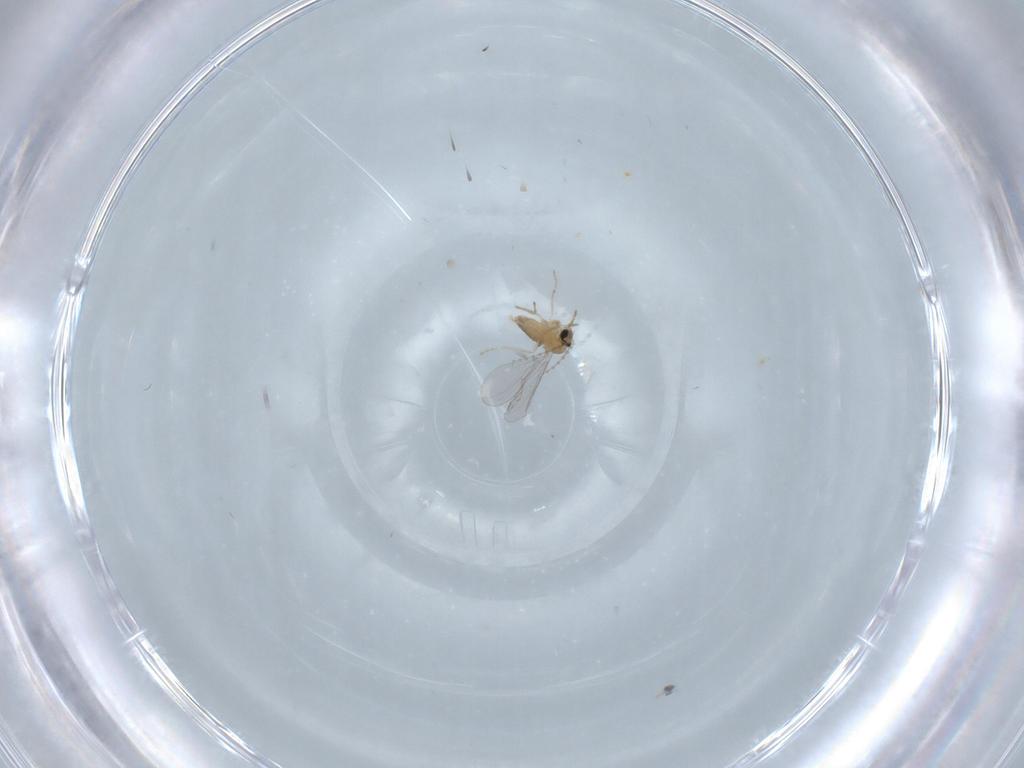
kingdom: Animalia
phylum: Arthropoda
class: Insecta
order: Diptera
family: Cecidomyiidae
